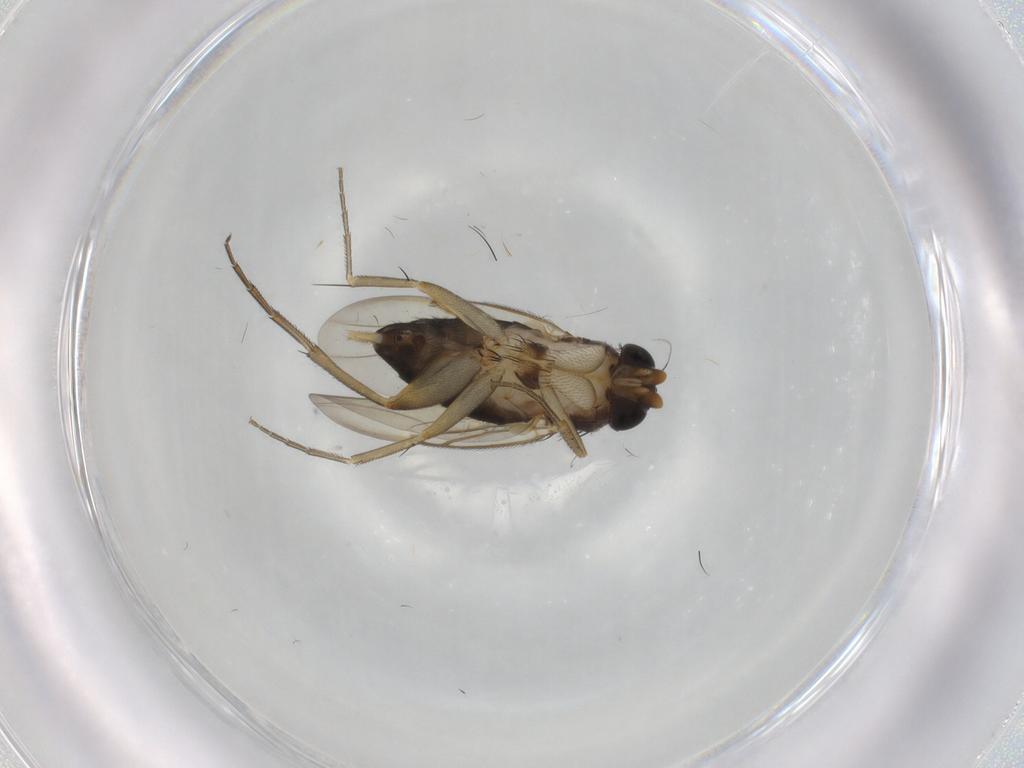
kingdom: Animalia
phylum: Arthropoda
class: Insecta
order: Diptera
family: Phoridae
